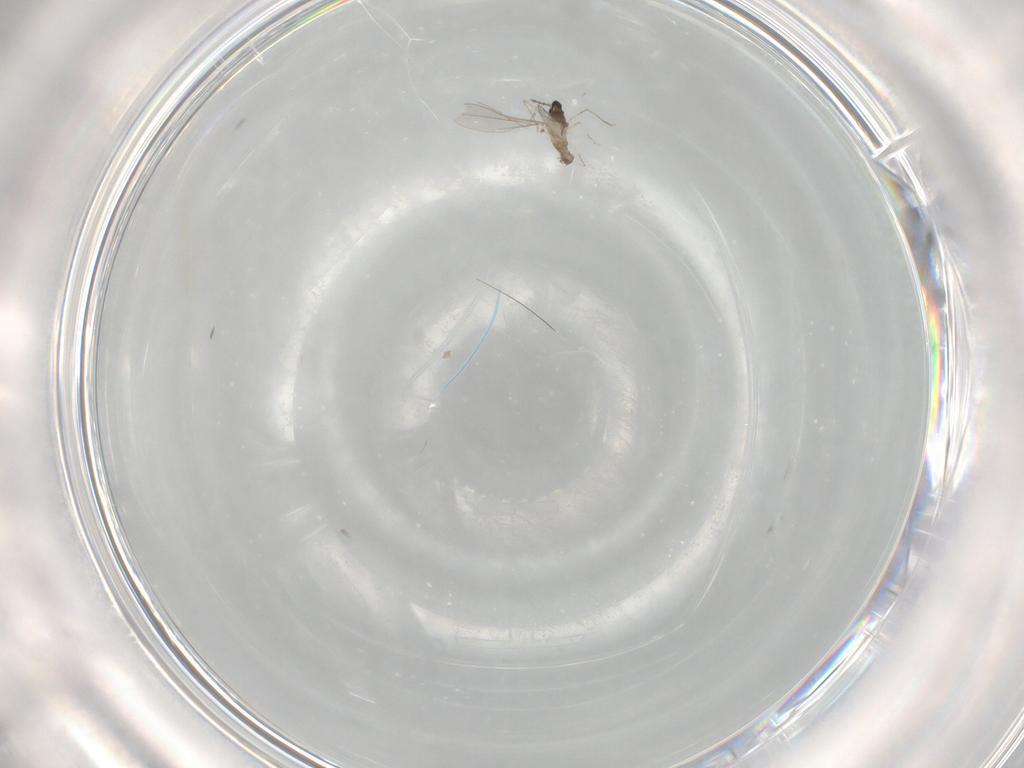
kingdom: Animalia
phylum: Arthropoda
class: Insecta
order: Diptera
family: Cecidomyiidae
